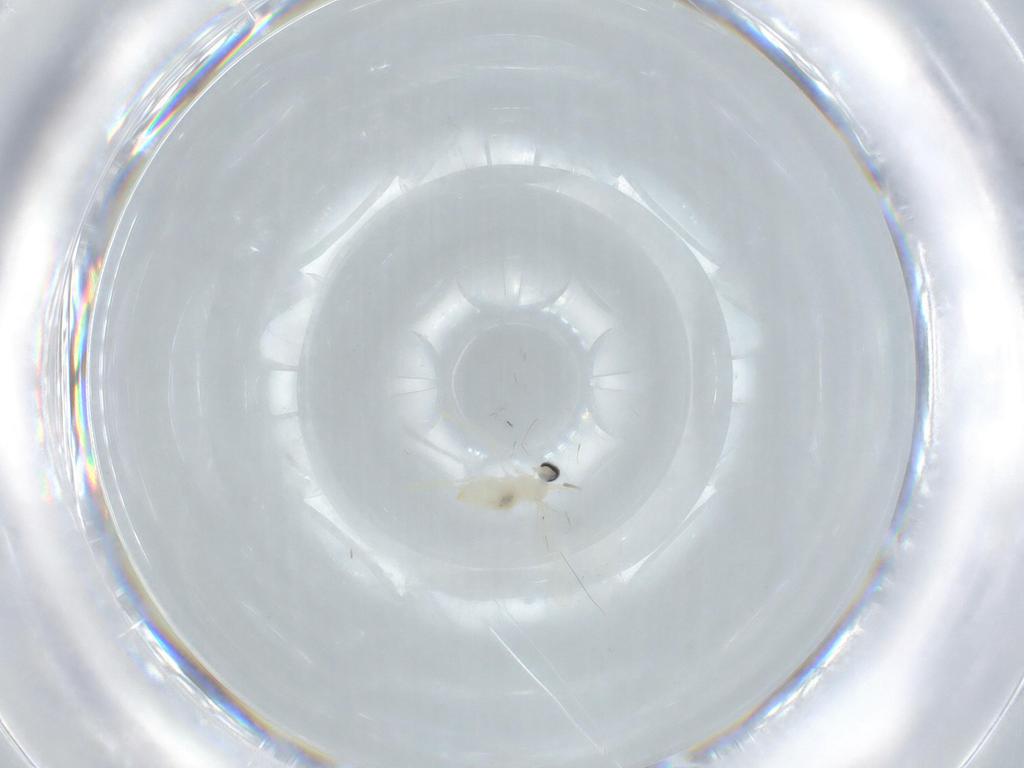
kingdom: Animalia
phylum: Arthropoda
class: Insecta
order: Diptera
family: Cecidomyiidae
